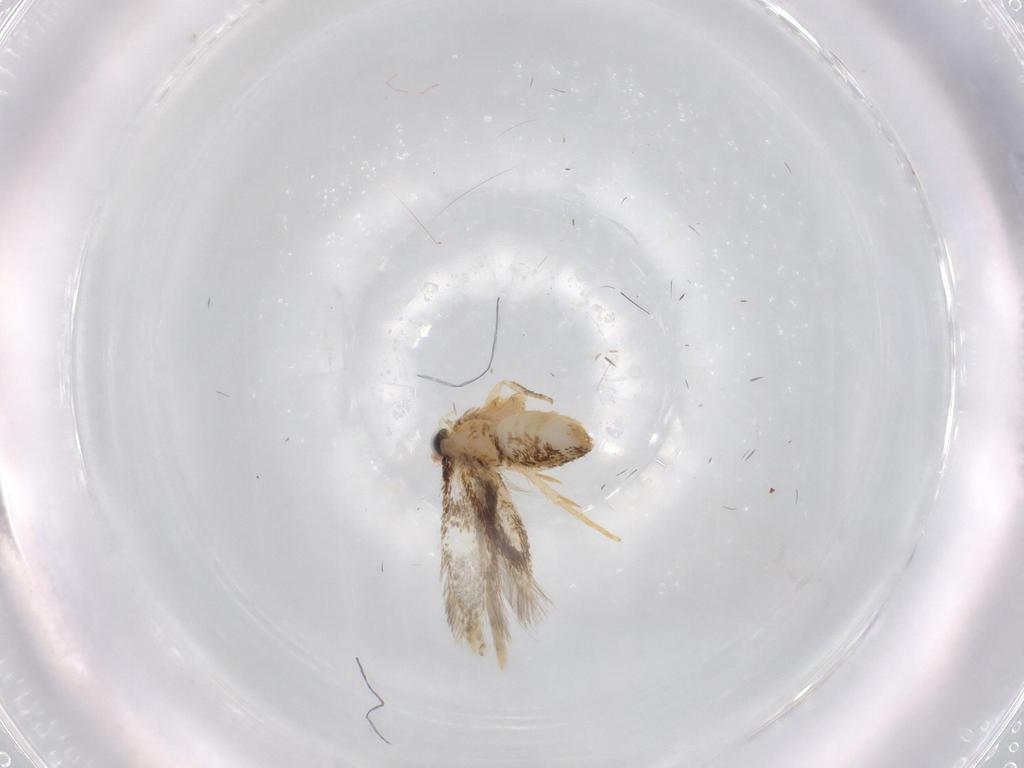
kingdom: Animalia
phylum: Arthropoda
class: Insecta
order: Lepidoptera
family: Nepticulidae
